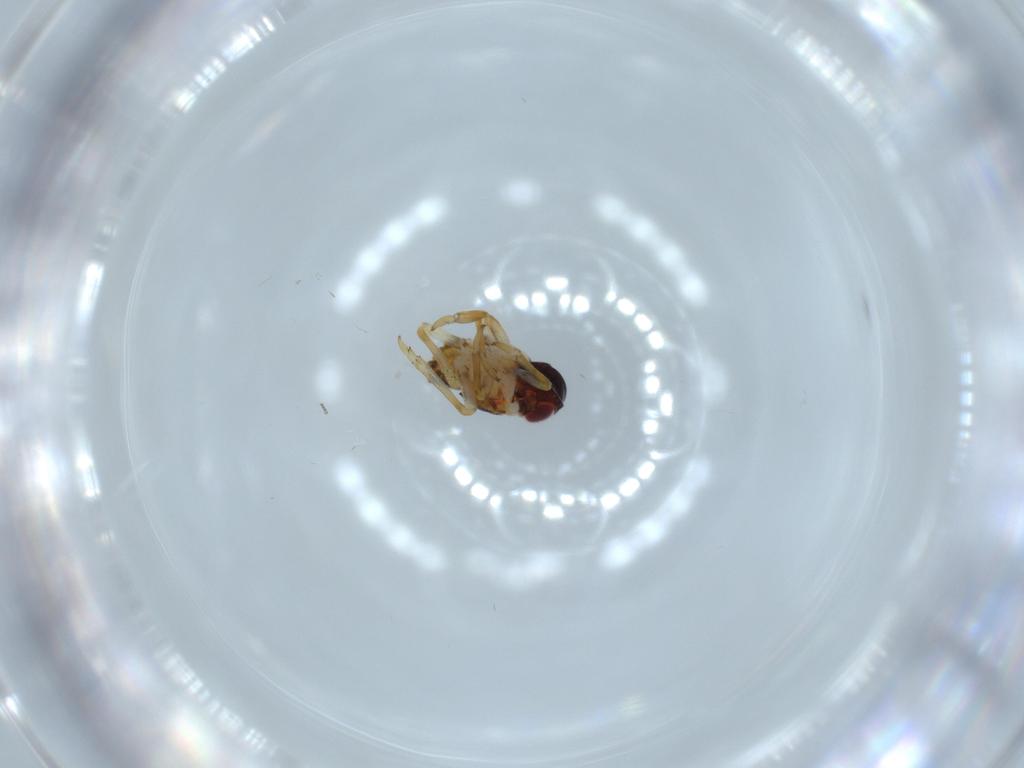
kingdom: Animalia
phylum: Arthropoda
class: Insecta
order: Hemiptera
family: Issidae
